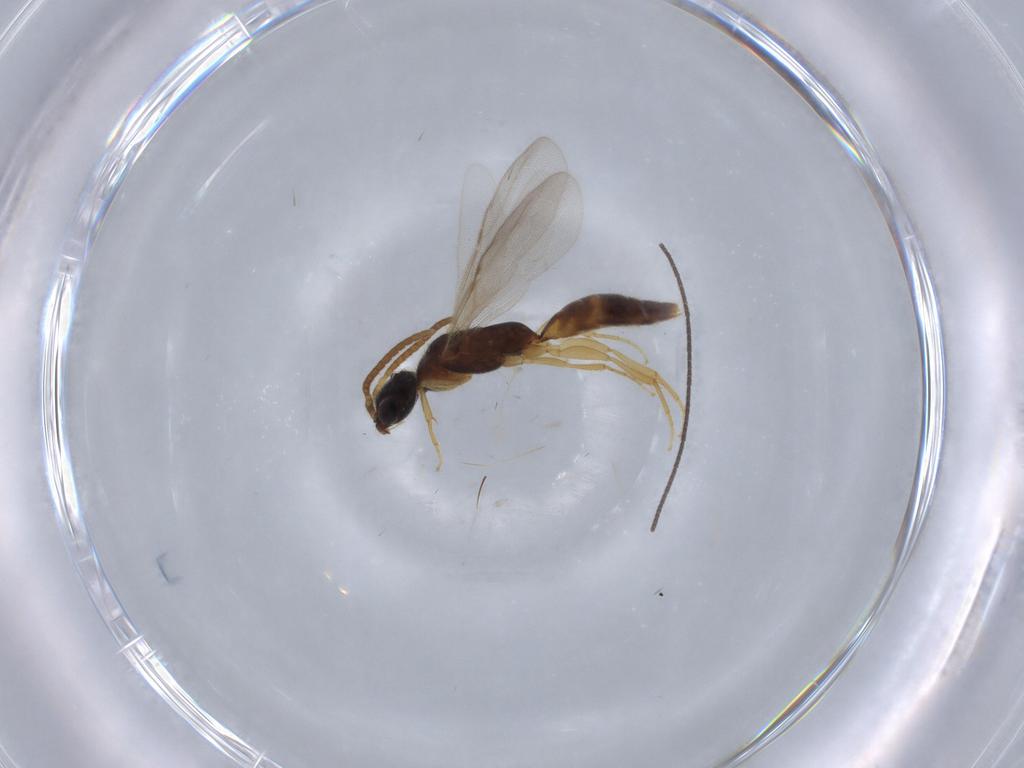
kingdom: Animalia
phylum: Arthropoda
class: Insecta
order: Hymenoptera
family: Bethylidae
